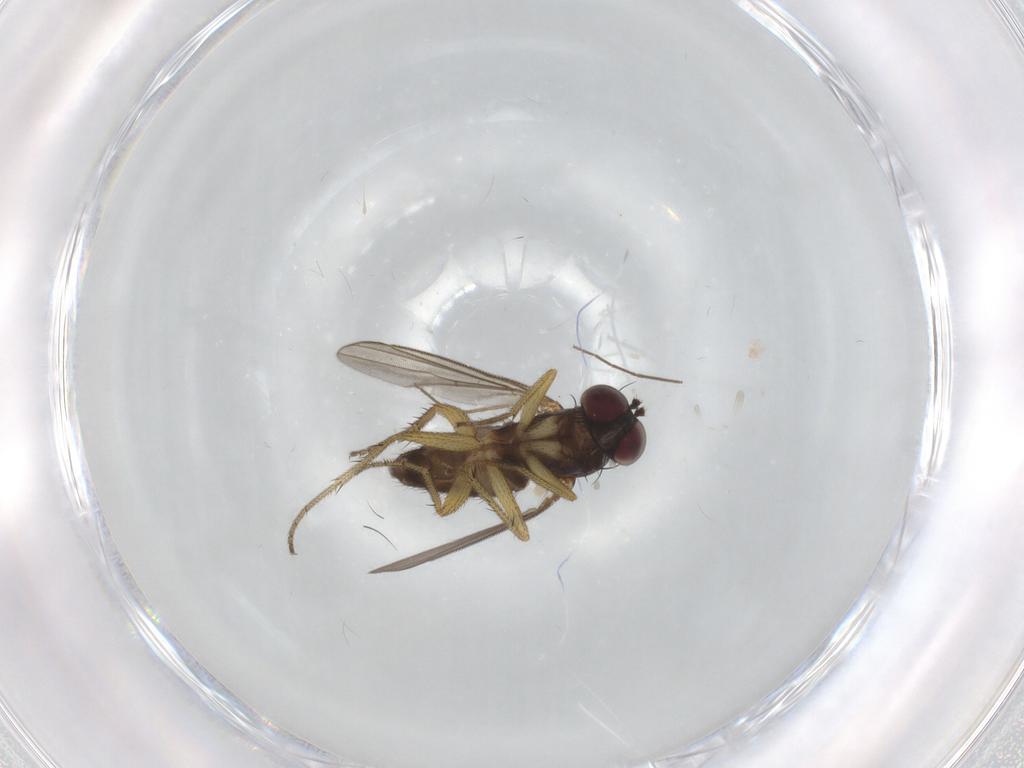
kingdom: Animalia
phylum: Arthropoda
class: Insecta
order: Diptera
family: Dolichopodidae
